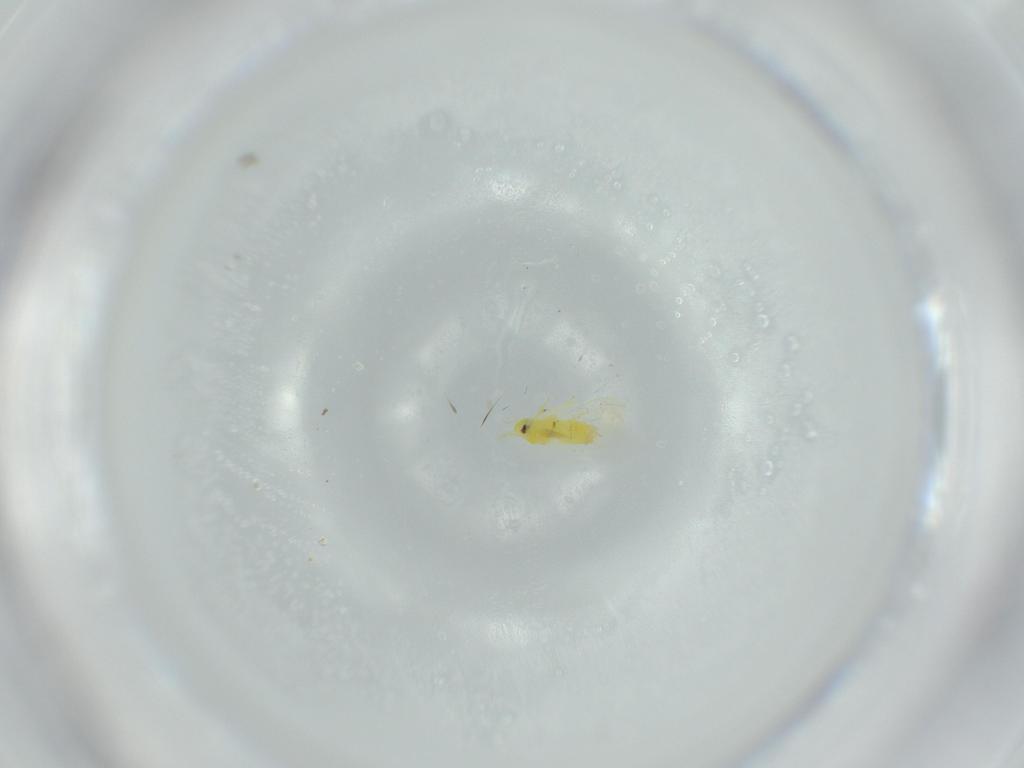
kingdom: Animalia
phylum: Arthropoda
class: Insecta
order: Hemiptera
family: Aleyrodidae
